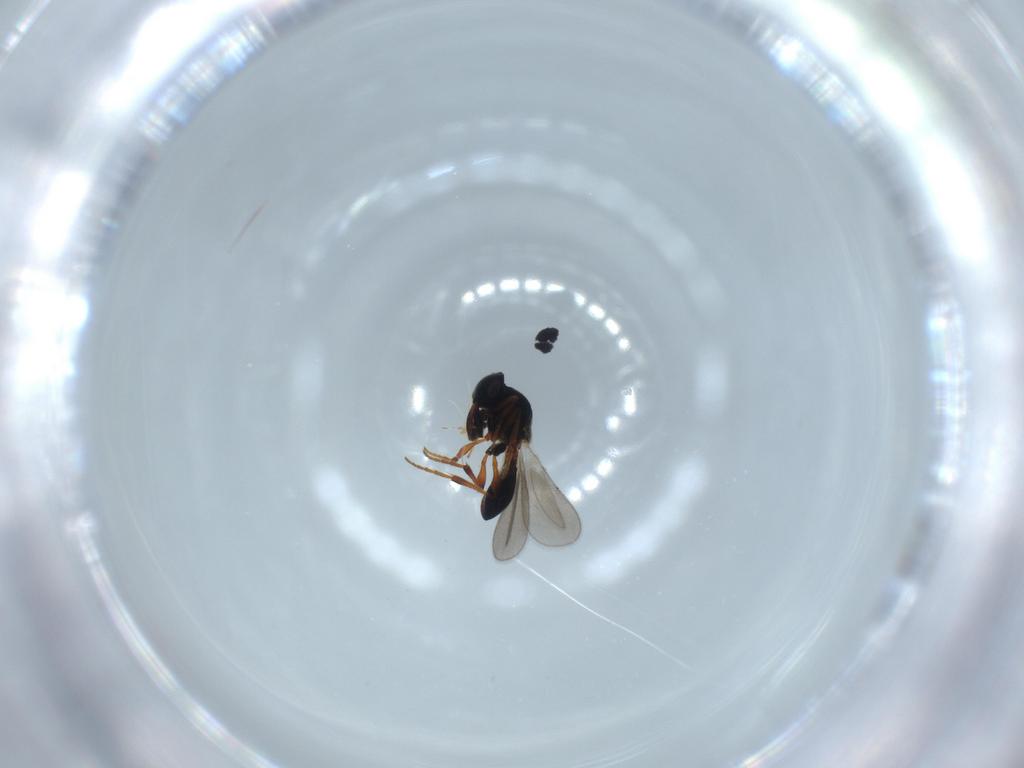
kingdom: Animalia
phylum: Arthropoda
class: Insecta
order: Hymenoptera
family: Platygastridae
